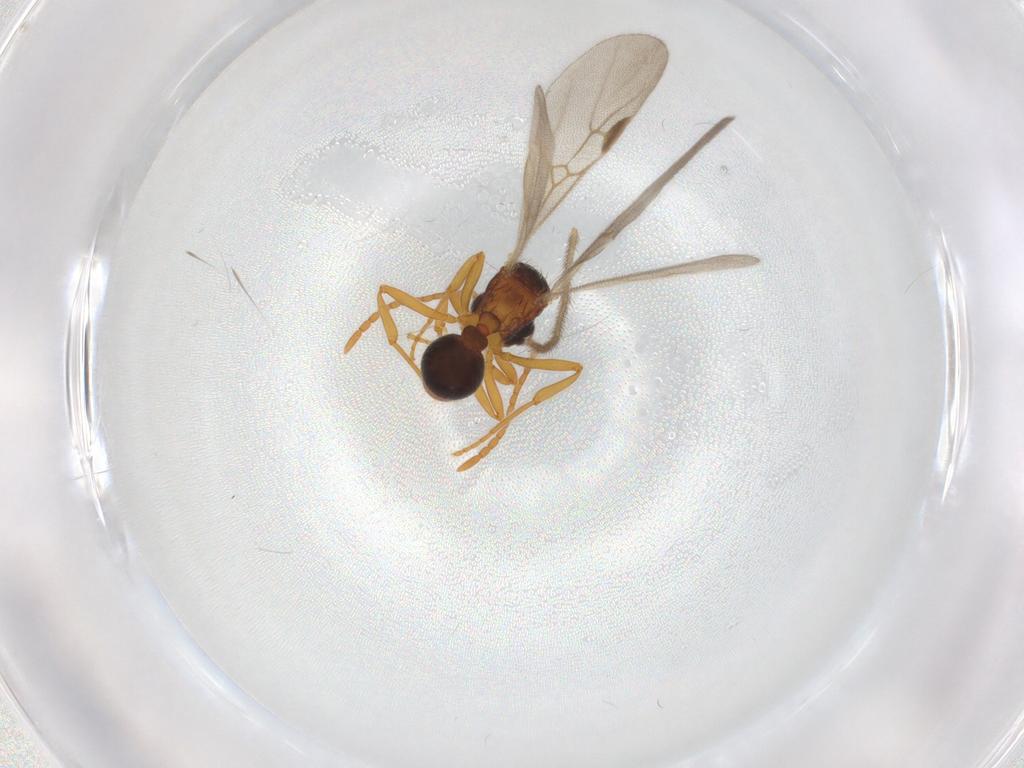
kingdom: Animalia
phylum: Arthropoda
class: Insecta
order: Hymenoptera
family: Formicidae
